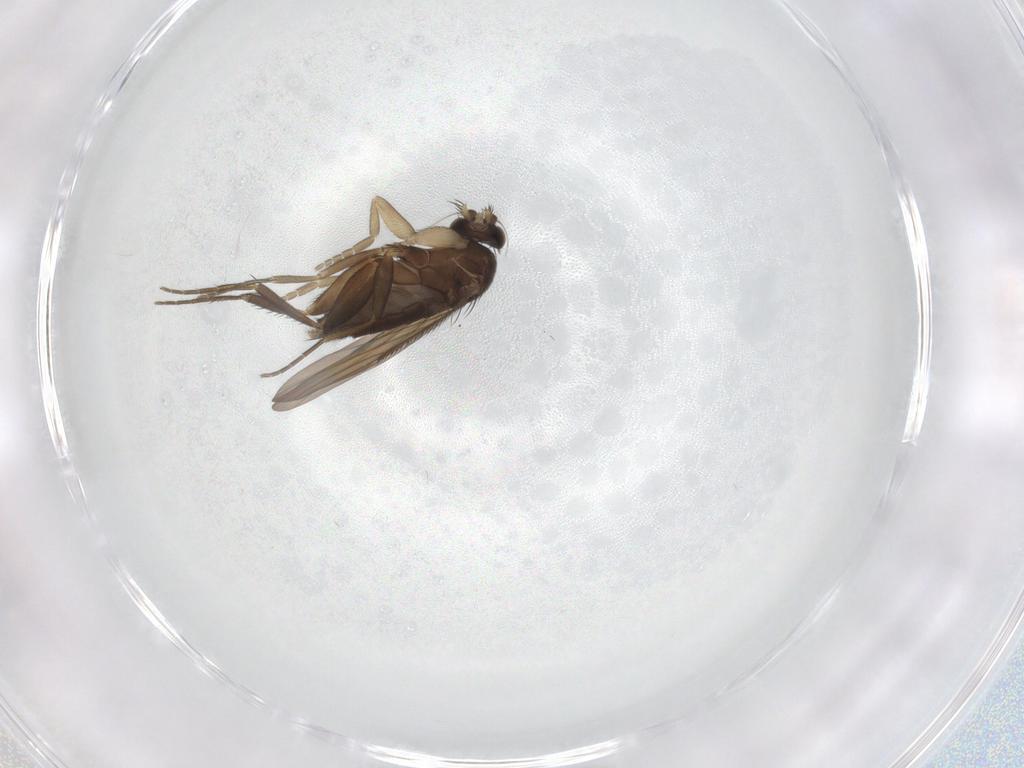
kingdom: Animalia
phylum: Arthropoda
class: Insecta
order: Diptera
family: Phoridae
